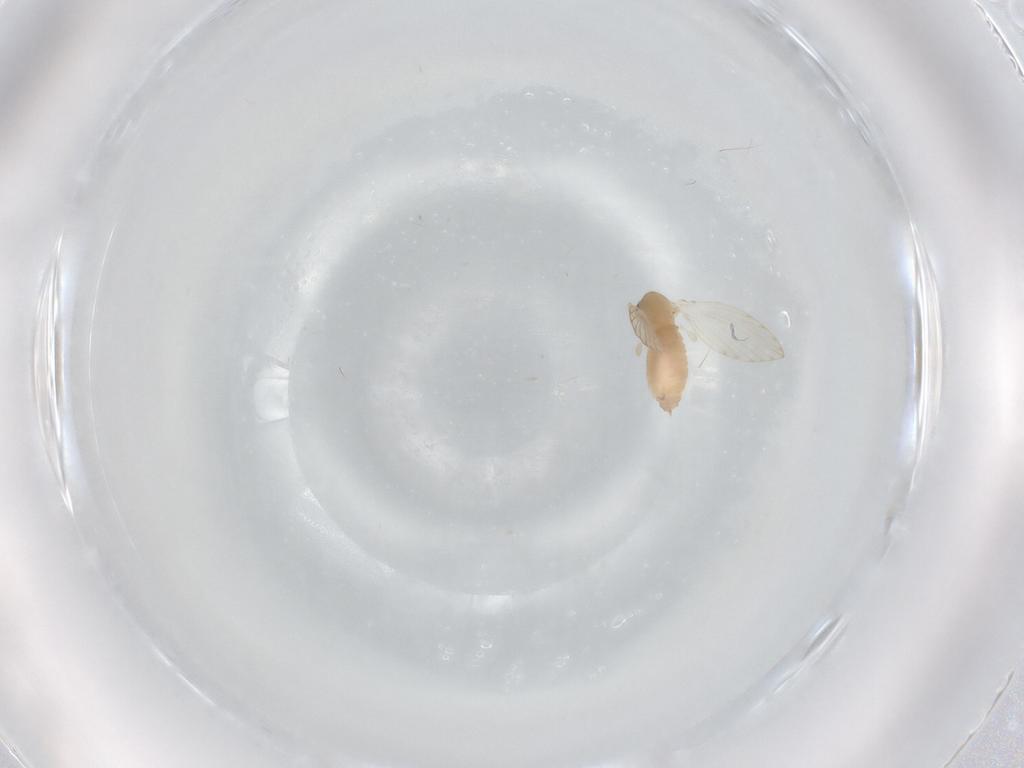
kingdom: Animalia
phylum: Arthropoda
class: Insecta
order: Diptera
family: Psychodidae
